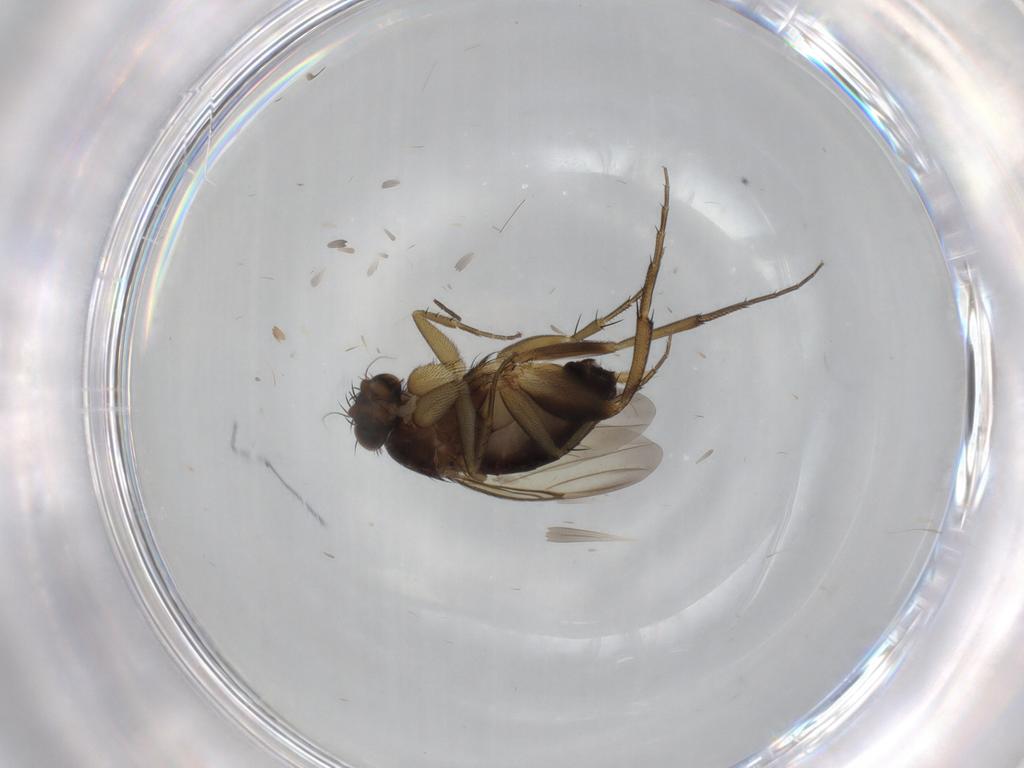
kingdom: Animalia
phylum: Arthropoda
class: Insecta
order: Diptera
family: Phoridae
